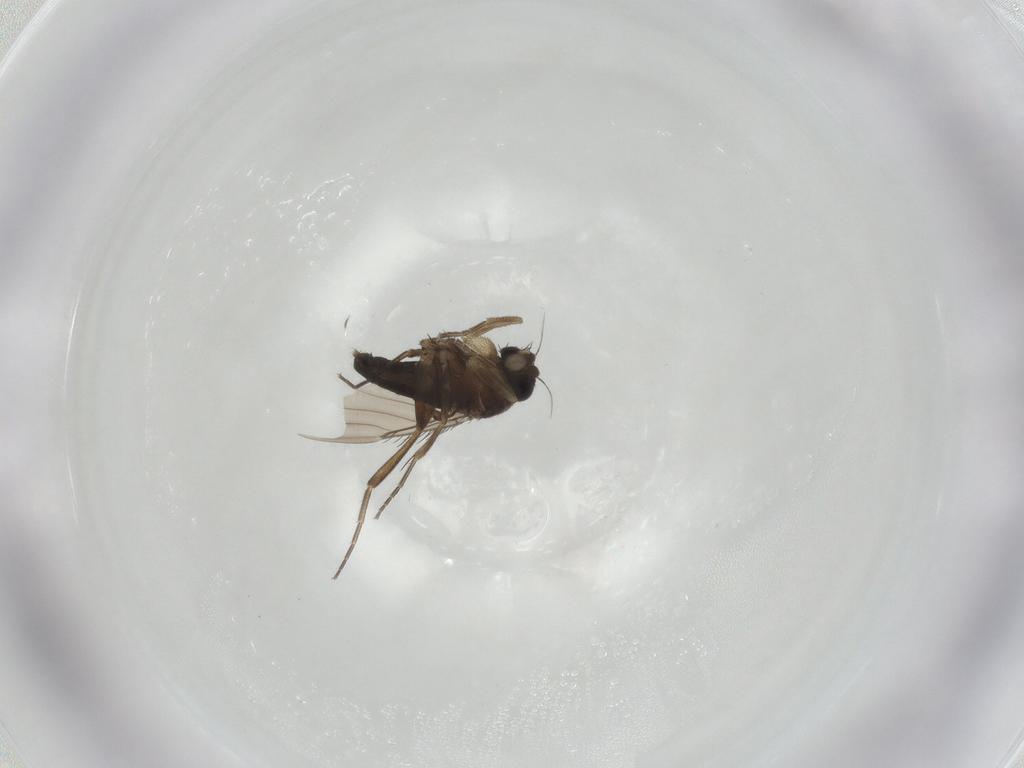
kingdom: Animalia
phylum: Arthropoda
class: Insecta
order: Diptera
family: Phoridae
